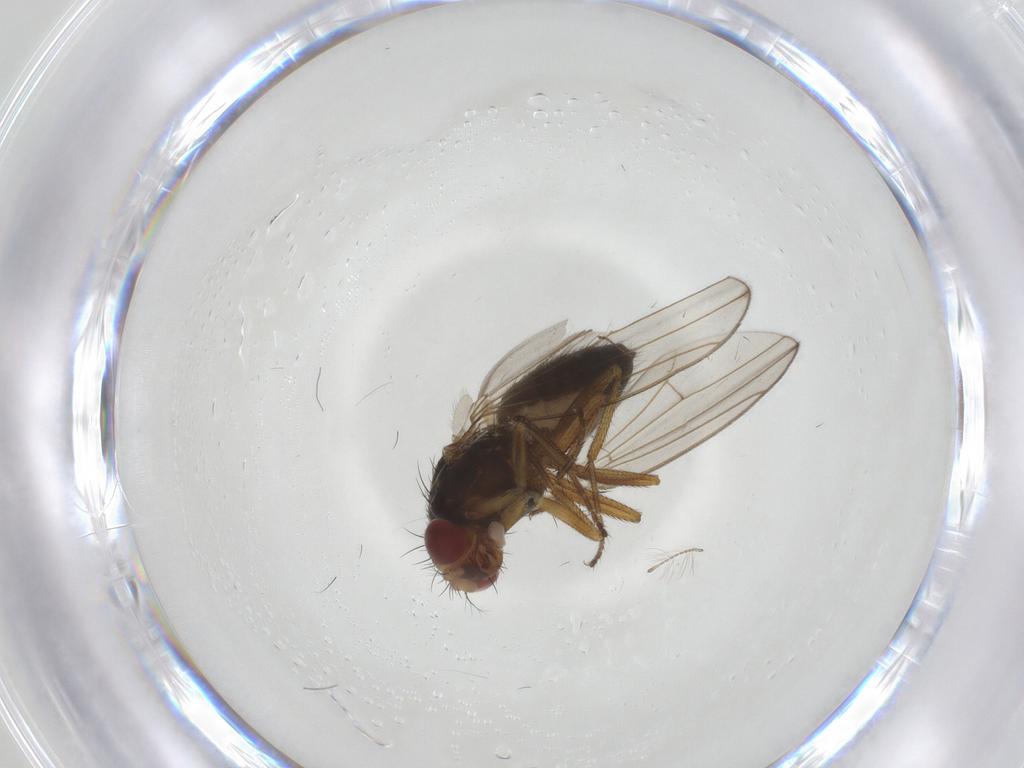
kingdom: Animalia
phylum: Arthropoda
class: Insecta
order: Diptera
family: Drosophilidae
